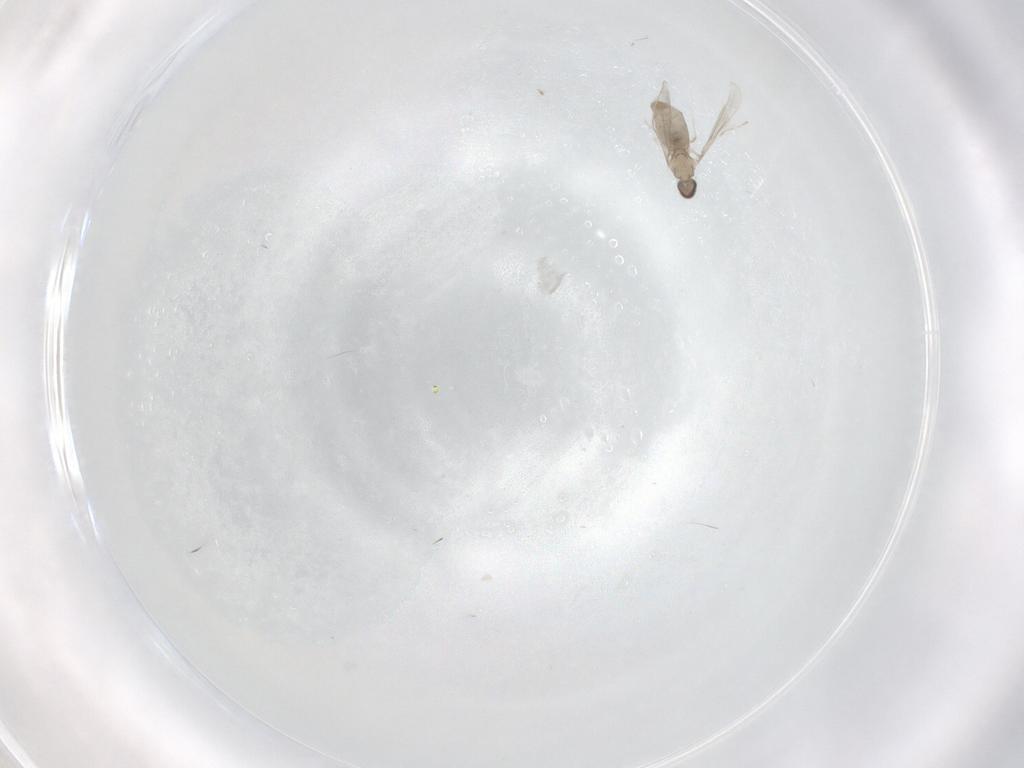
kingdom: Animalia
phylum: Arthropoda
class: Insecta
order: Diptera
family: Cecidomyiidae
